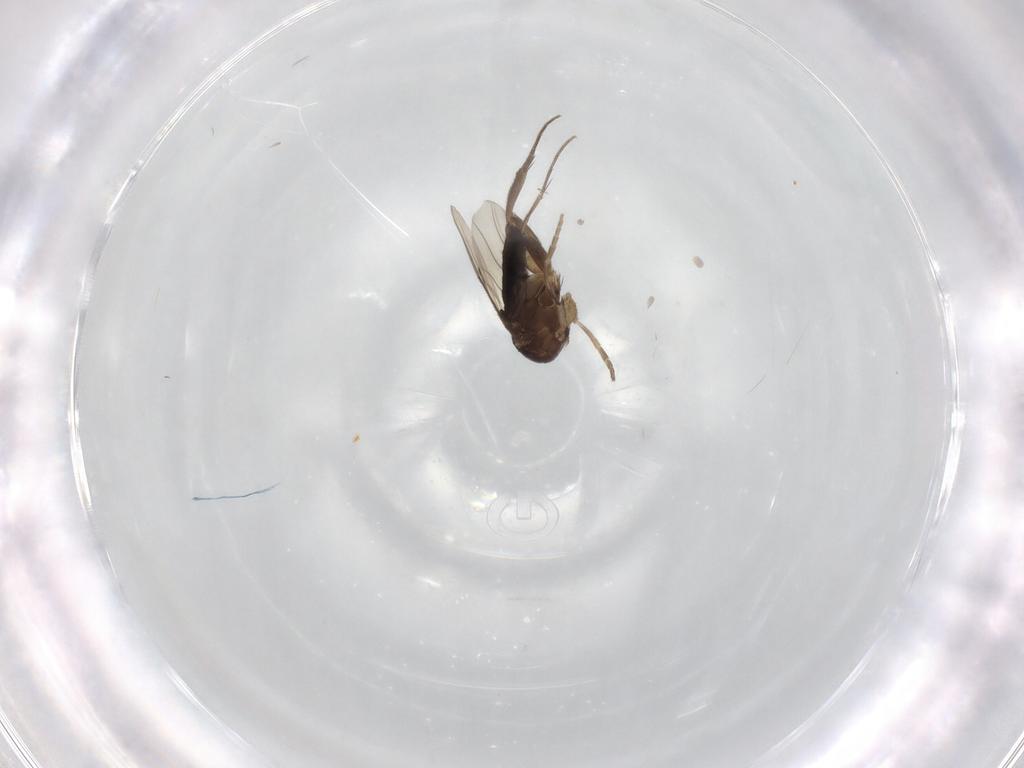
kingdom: Animalia
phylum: Arthropoda
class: Insecta
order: Diptera
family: Phoridae
